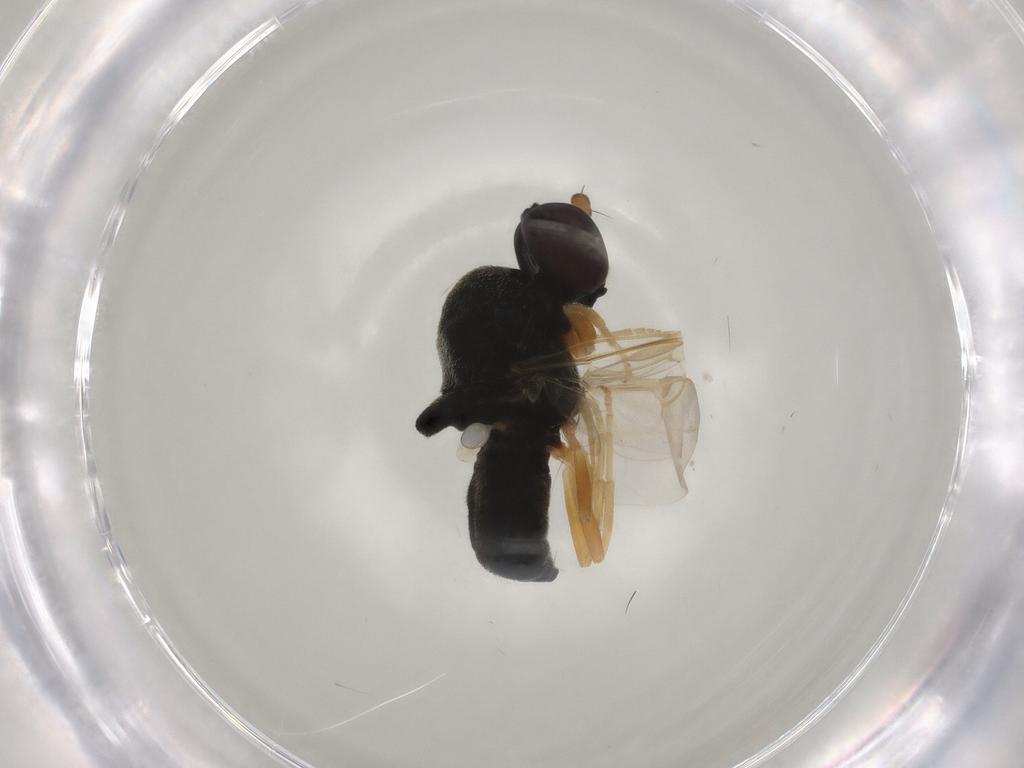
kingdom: Animalia
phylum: Arthropoda
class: Insecta
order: Diptera
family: Stratiomyidae
